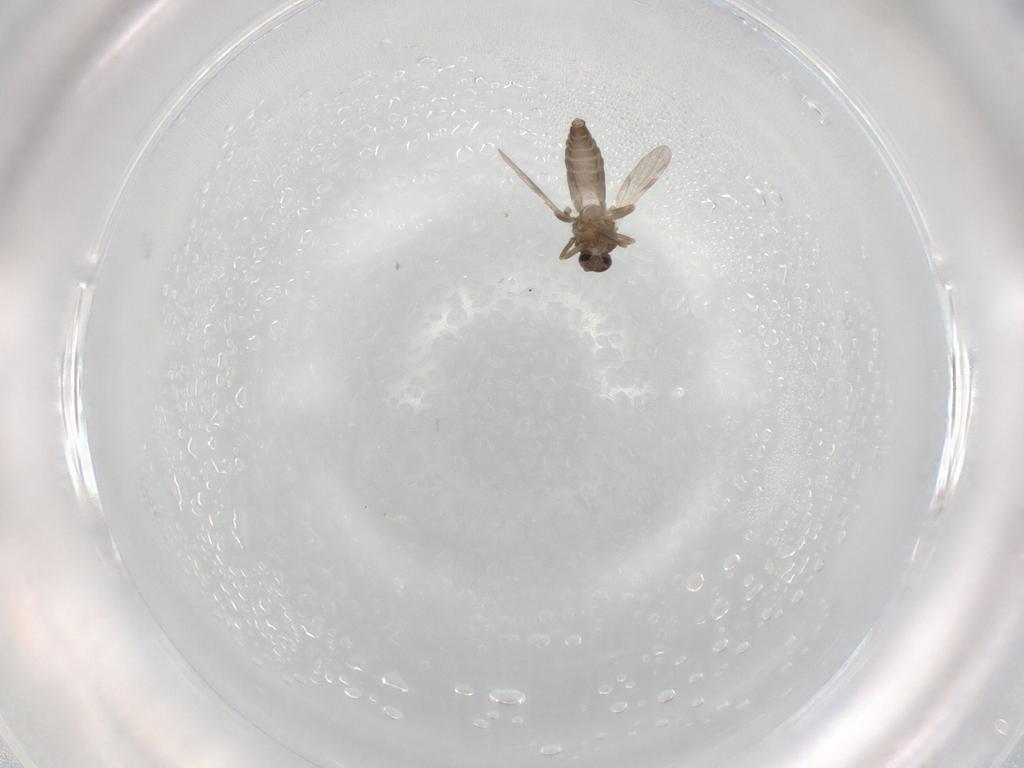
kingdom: Animalia
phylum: Arthropoda
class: Insecta
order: Diptera
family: Ceratopogonidae
